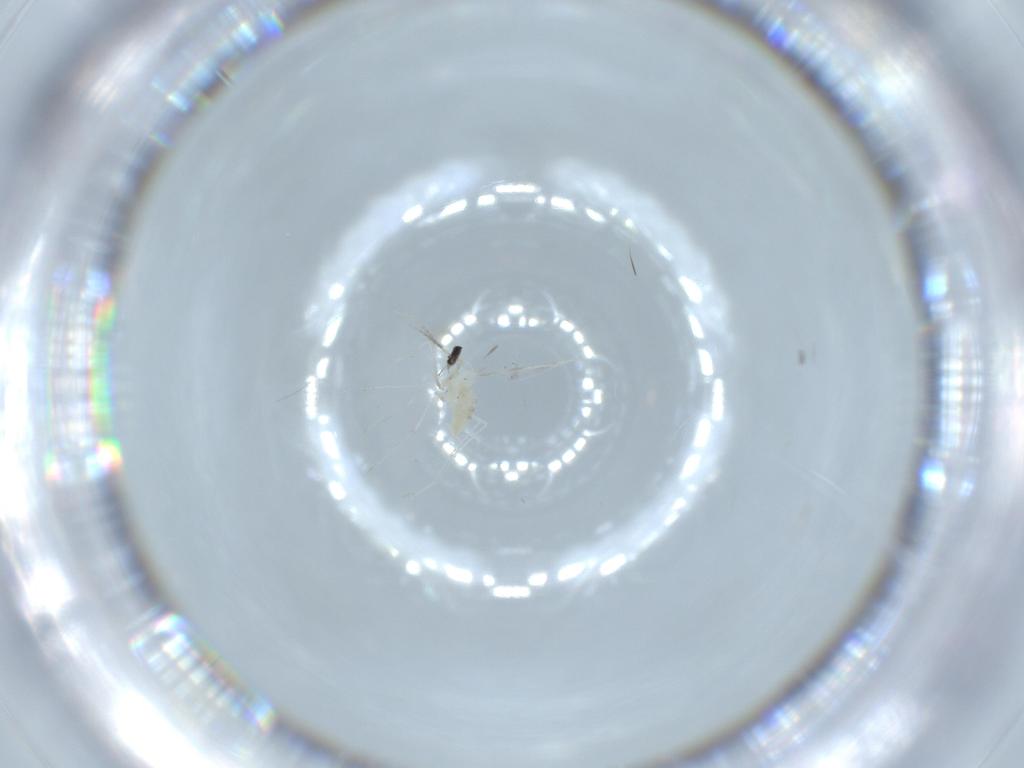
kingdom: Animalia
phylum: Arthropoda
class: Insecta
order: Diptera
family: Cecidomyiidae
